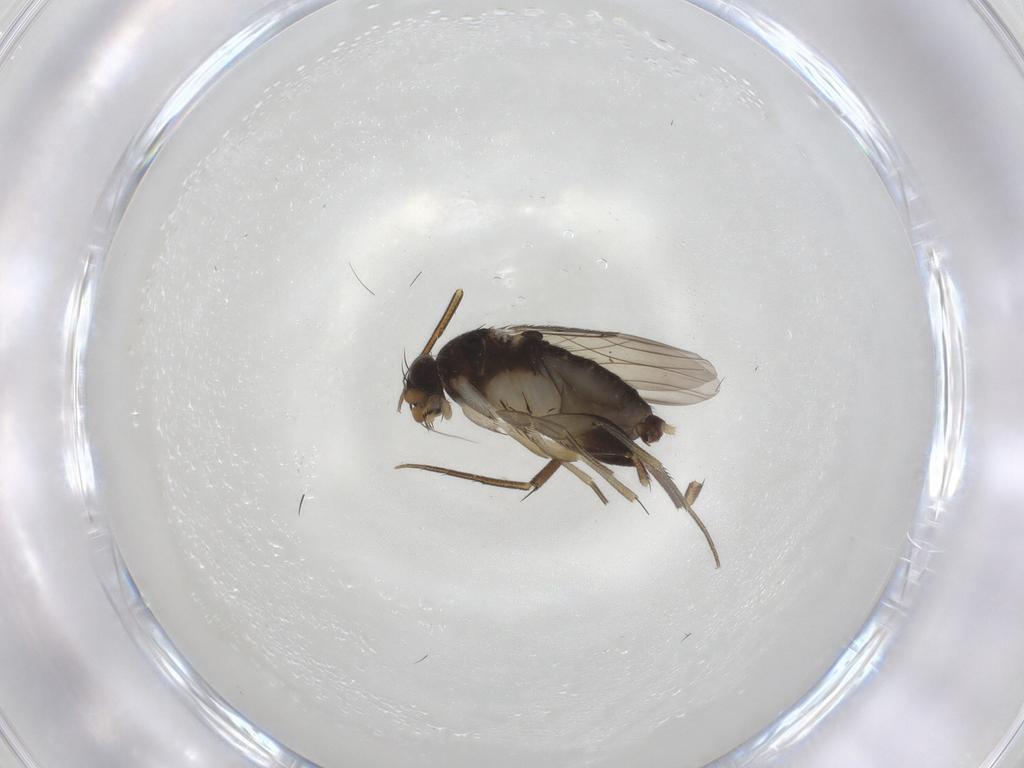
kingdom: Animalia
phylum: Arthropoda
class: Insecta
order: Diptera
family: Phoridae
